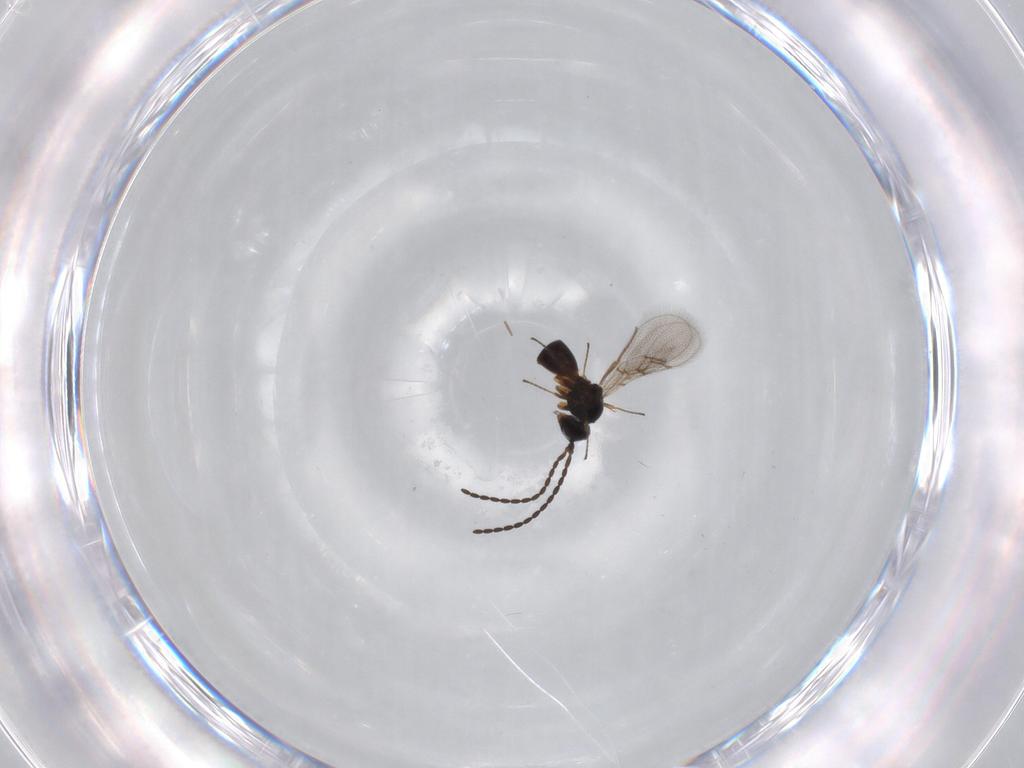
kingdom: Animalia
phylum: Arthropoda
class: Insecta
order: Hymenoptera
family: Figitidae
